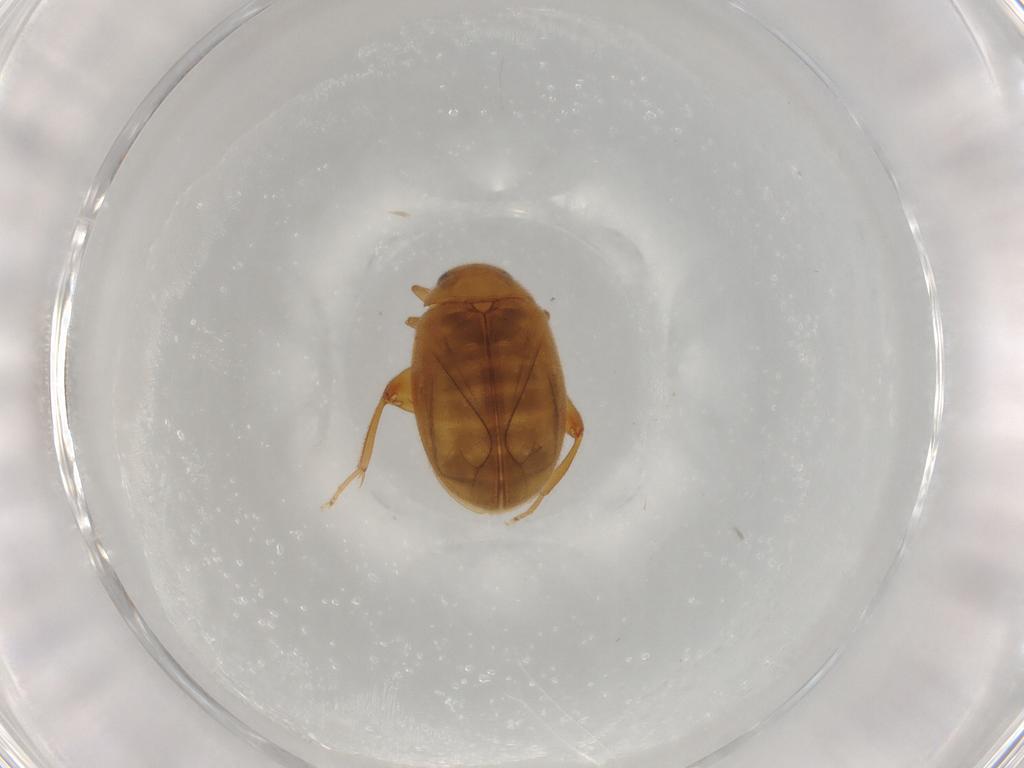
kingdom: Animalia
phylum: Arthropoda
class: Insecta
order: Coleoptera
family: Scirtidae
